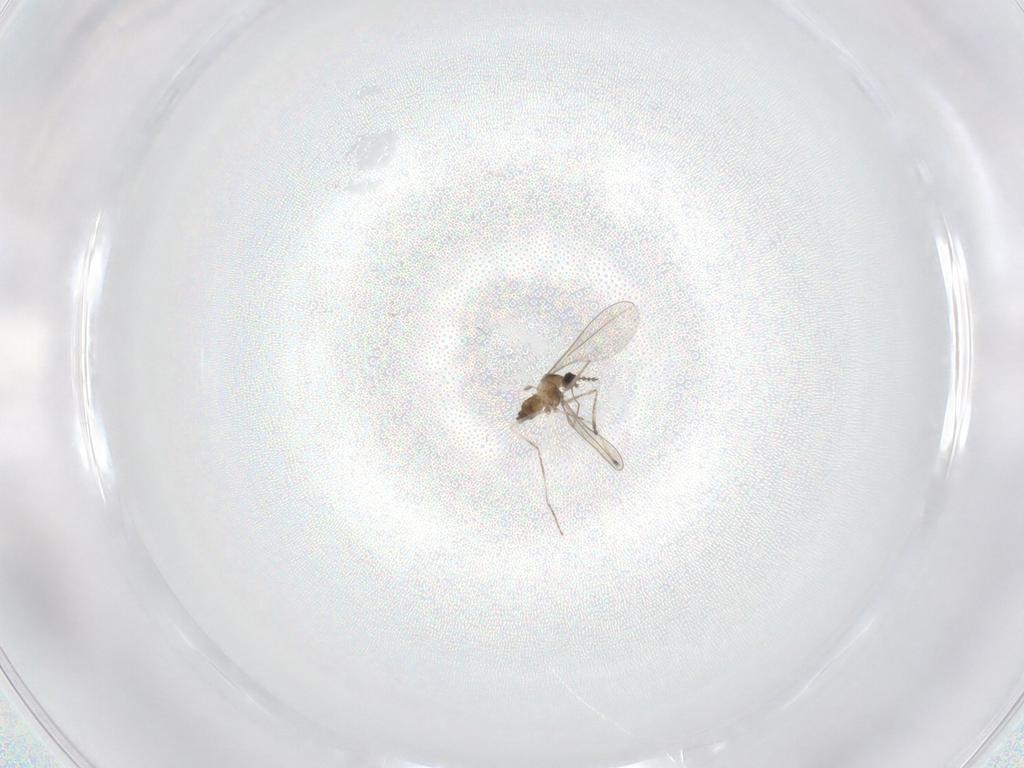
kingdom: Animalia
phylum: Arthropoda
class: Insecta
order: Diptera
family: Cecidomyiidae
